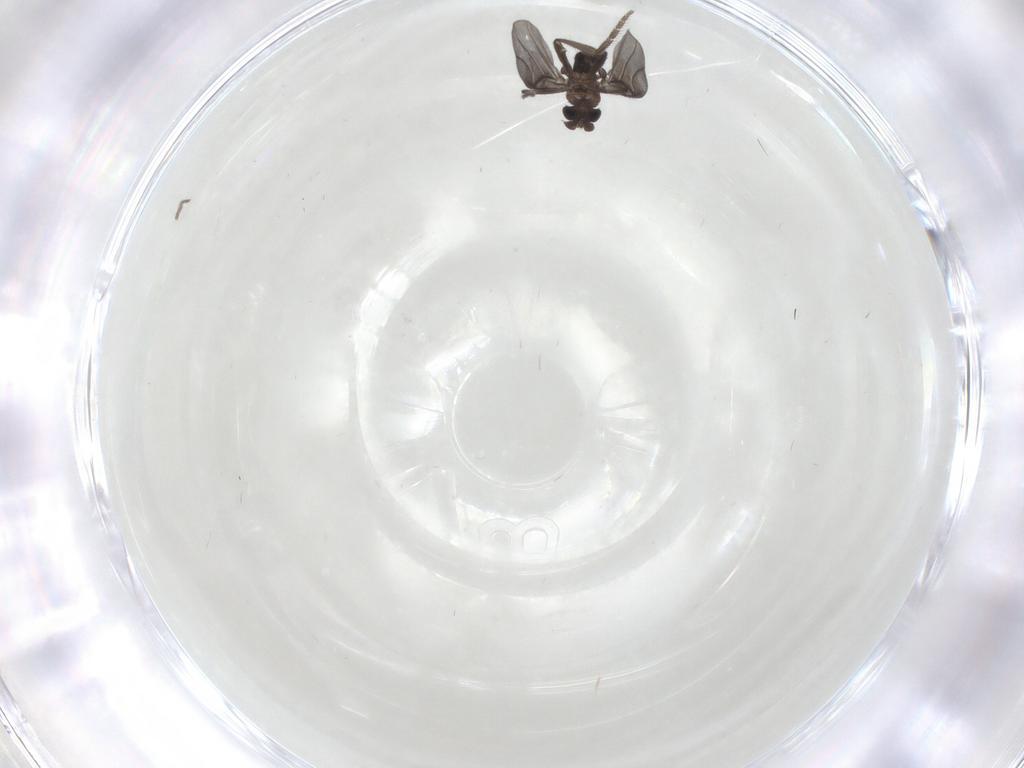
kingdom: Animalia
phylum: Arthropoda
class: Insecta
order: Diptera
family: Phoridae
